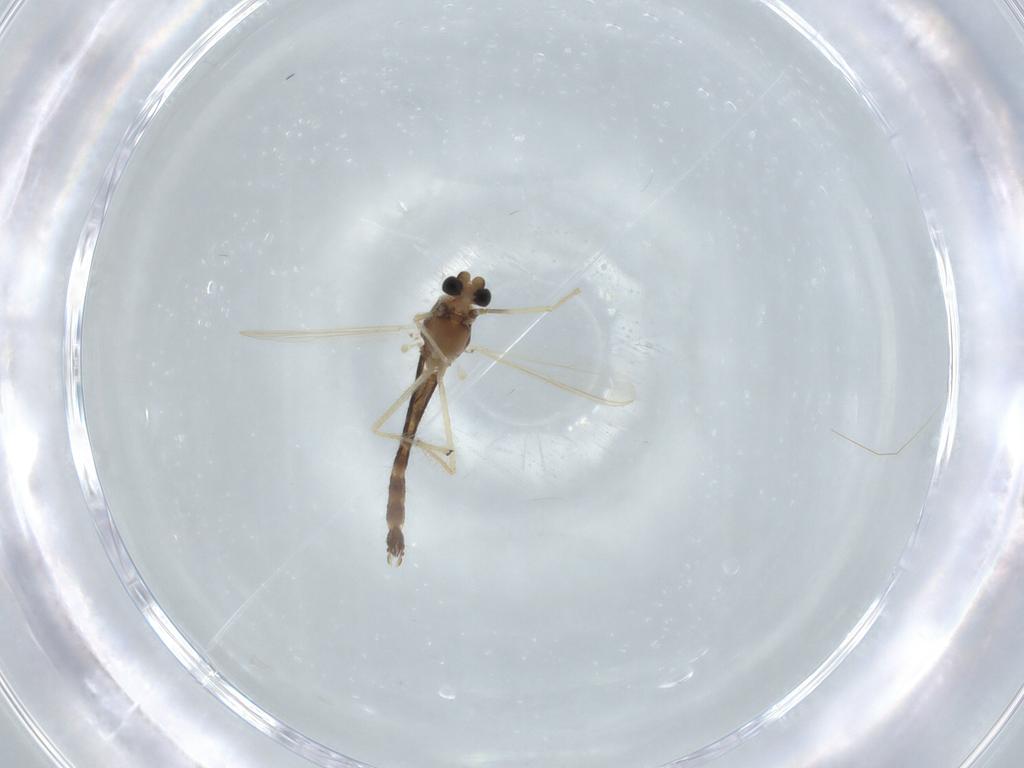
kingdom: Animalia
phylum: Arthropoda
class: Insecta
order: Diptera
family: Chironomidae
